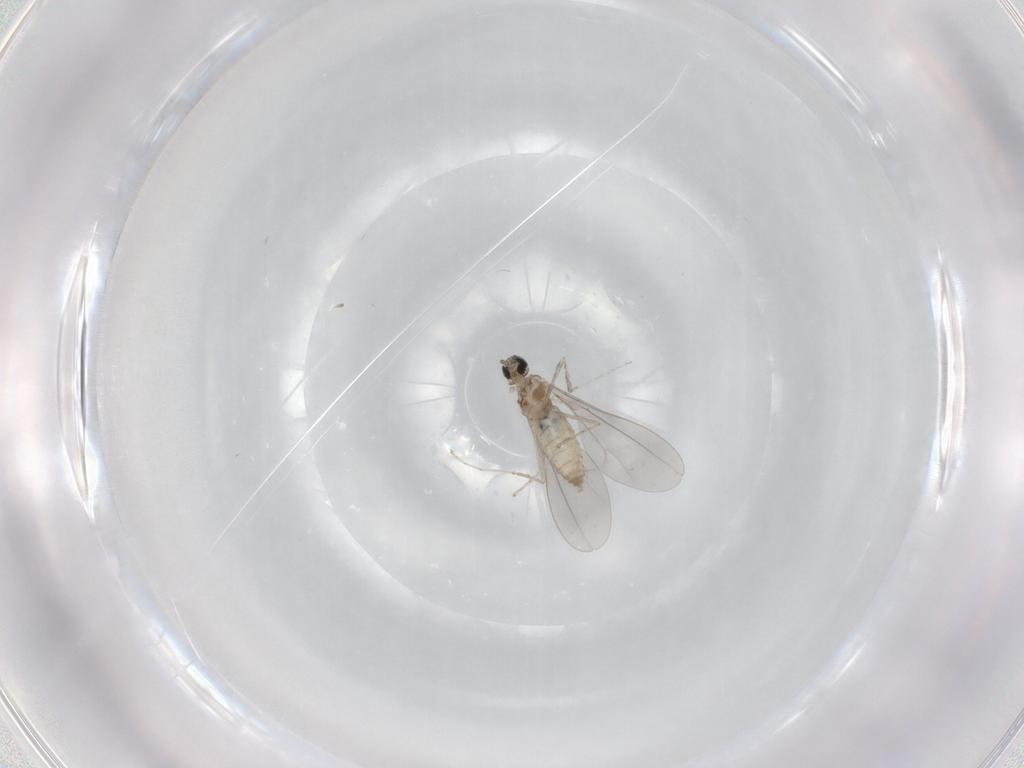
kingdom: Animalia
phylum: Arthropoda
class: Insecta
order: Diptera
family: Cecidomyiidae
